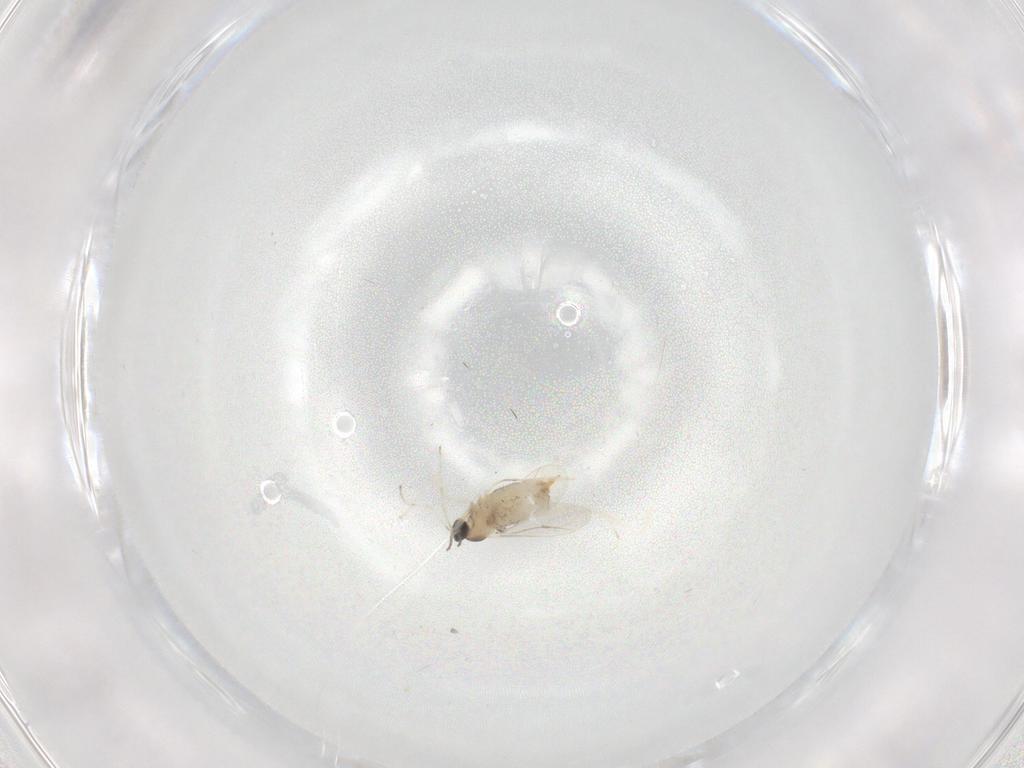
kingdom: Animalia
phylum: Arthropoda
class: Insecta
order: Diptera
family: Cecidomyiidae
